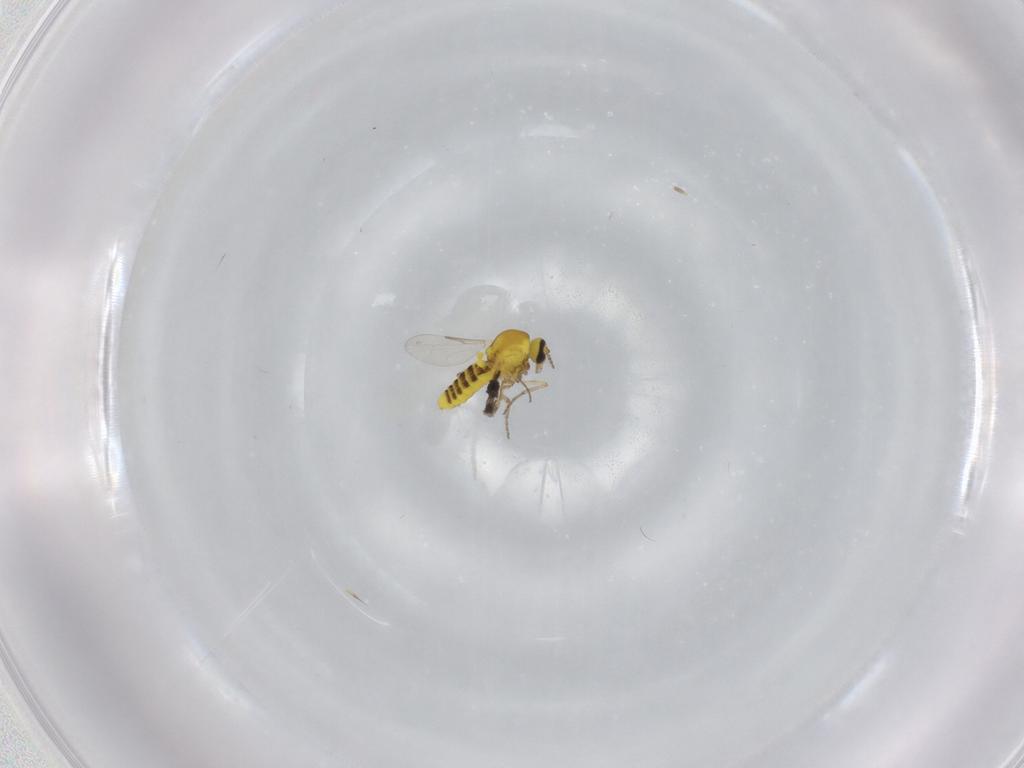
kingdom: Animalia
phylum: Arthropoda
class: Insecta
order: Diptera
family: Ceratopogonidae
